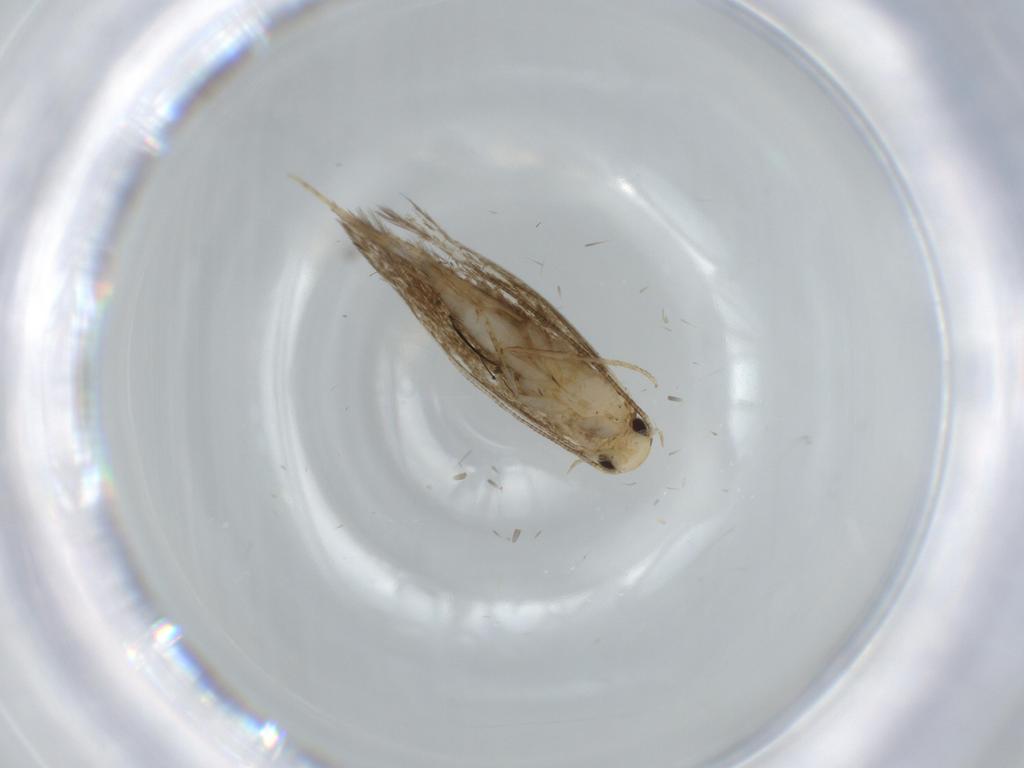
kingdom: Animalia
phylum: Arthropoda
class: Insecta
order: Lepidoptera
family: Tineidae
